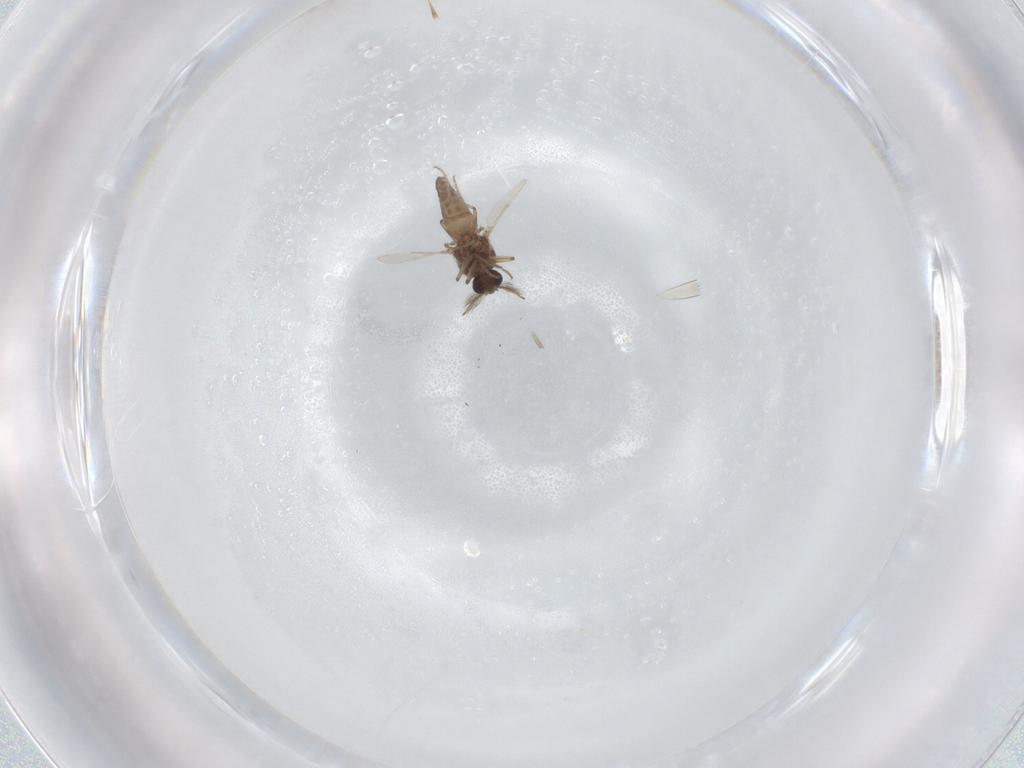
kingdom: Animalia
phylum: Arthropoda
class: Insecta
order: Diptera
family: Ceratopogonidae
